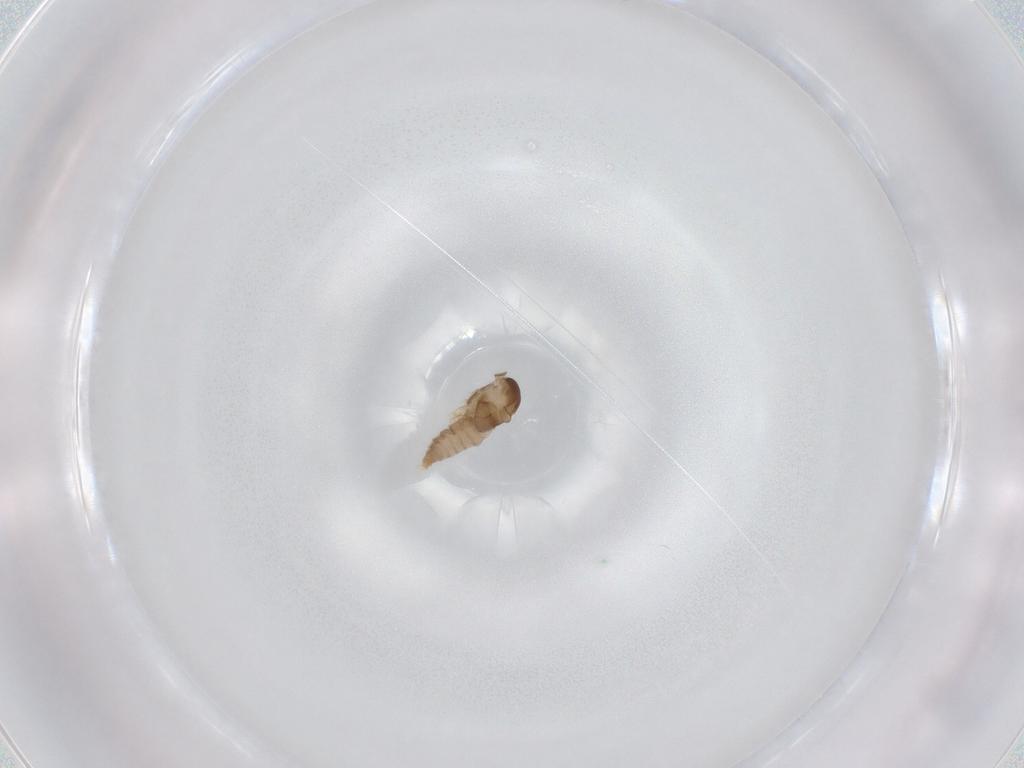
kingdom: Animalia
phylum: Arthropoda
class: Insecta
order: Diptera
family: Cecidomyiidae
